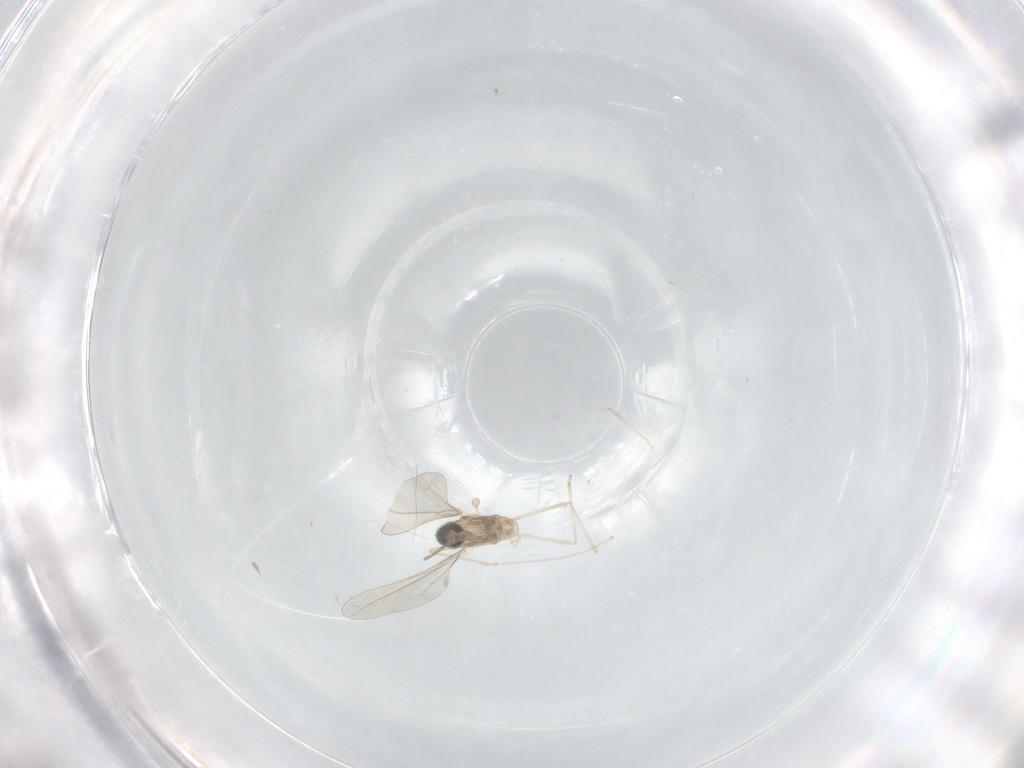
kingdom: Animalia
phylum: Arthropoda
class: Insecta
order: Diptera
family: Cecidomyiidae
